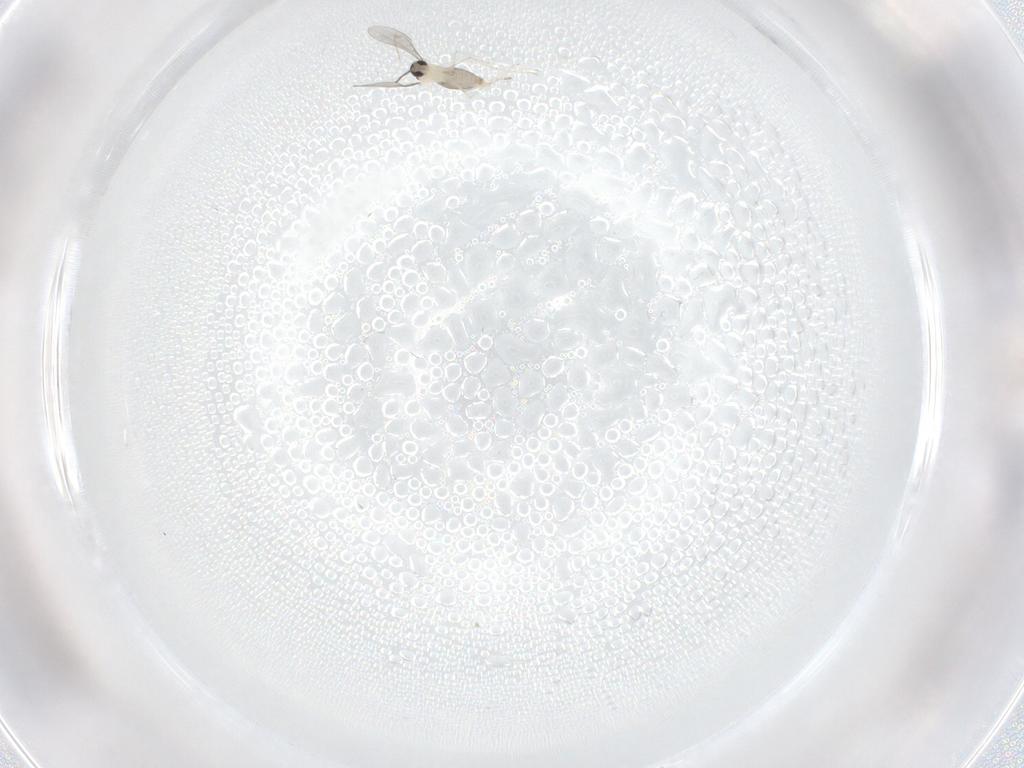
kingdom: Animalia
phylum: Arthropoda
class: Insecta
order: Diptera
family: Cecidomyiidae
